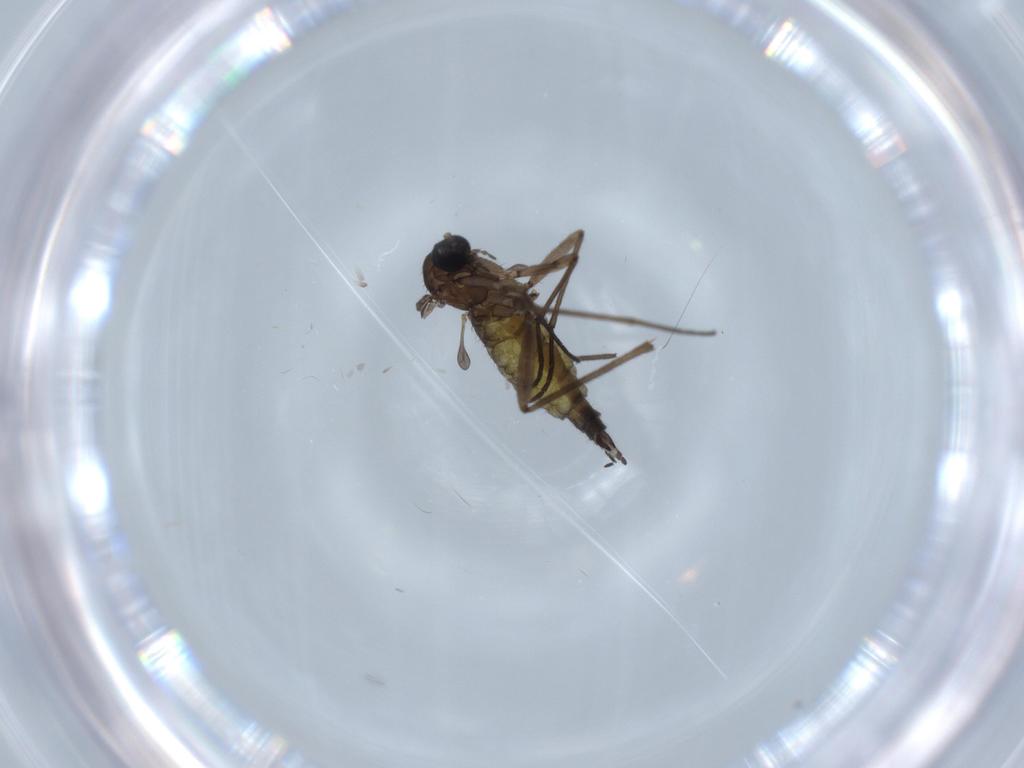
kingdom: Animalia
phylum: Arthropoda
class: Insecta
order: Diptera
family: Sciaridae
